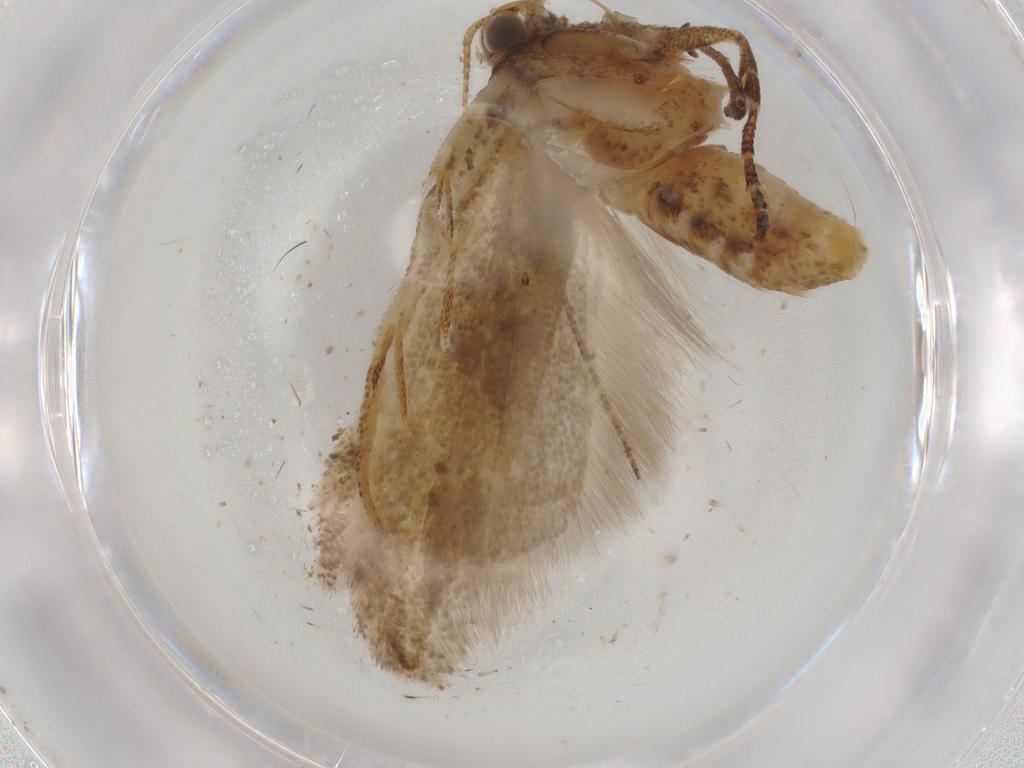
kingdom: Animalia
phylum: Arthropoda
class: Insecta
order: Lepidoptera
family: Gelechiidae
